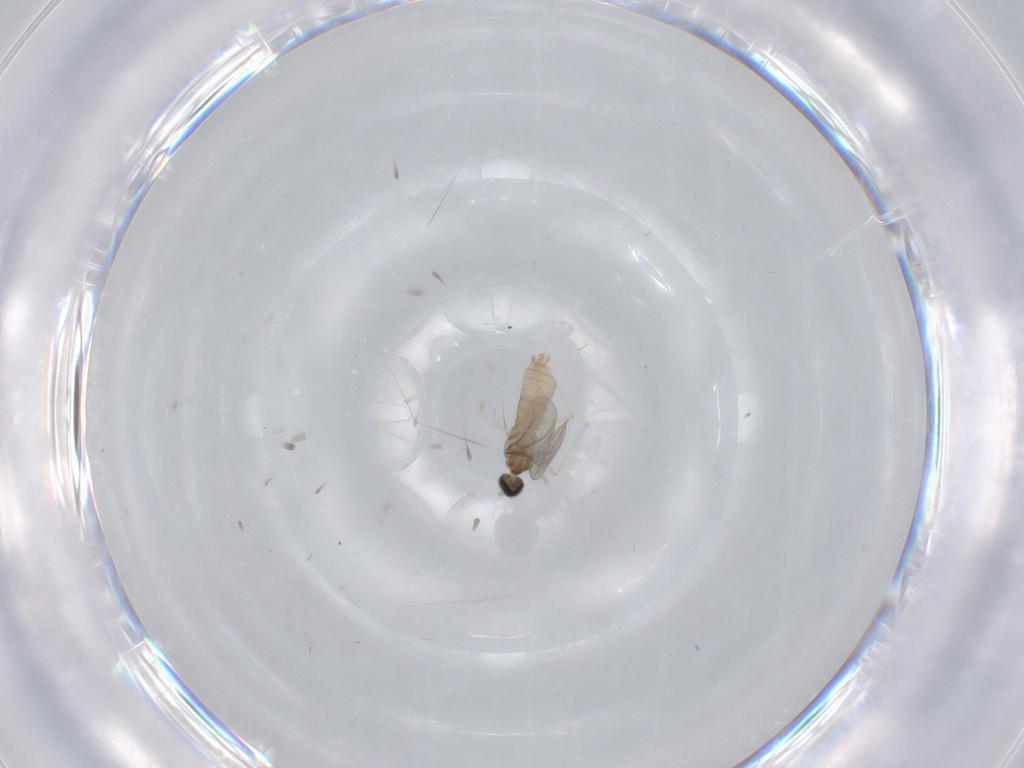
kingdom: Animalia
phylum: Arthropoda
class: Insecta
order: Diptera
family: Cecidomyiidae
